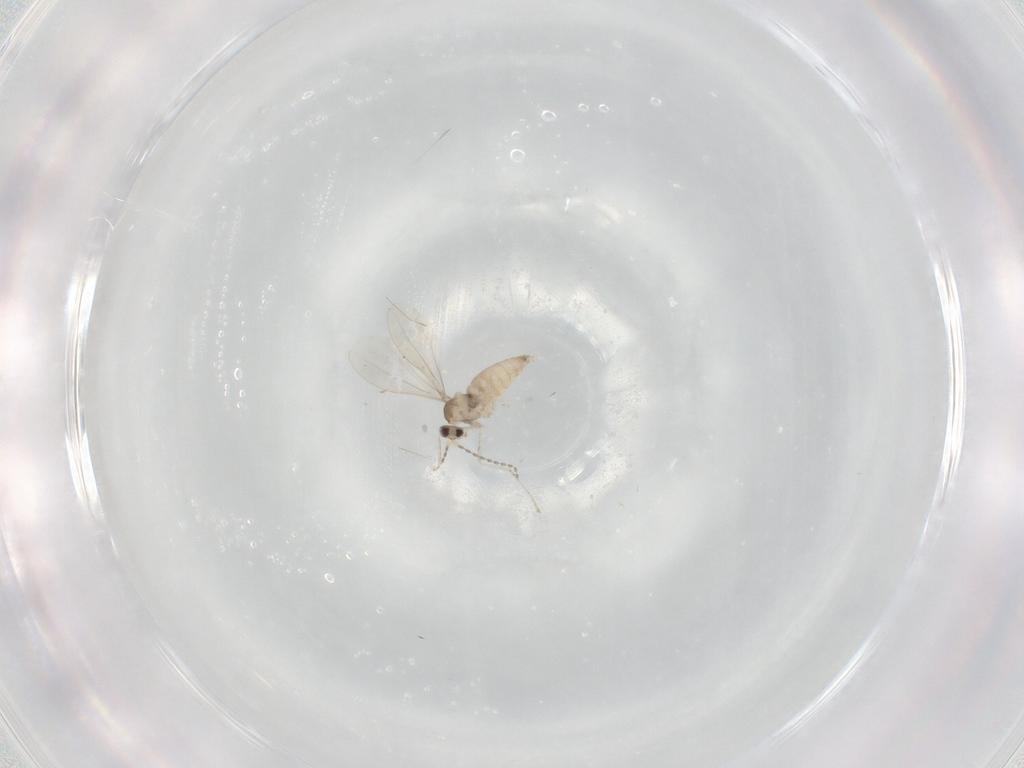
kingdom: Animalia
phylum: Arthropoda
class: Insecta
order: Diptera
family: Cecidomyiidae
